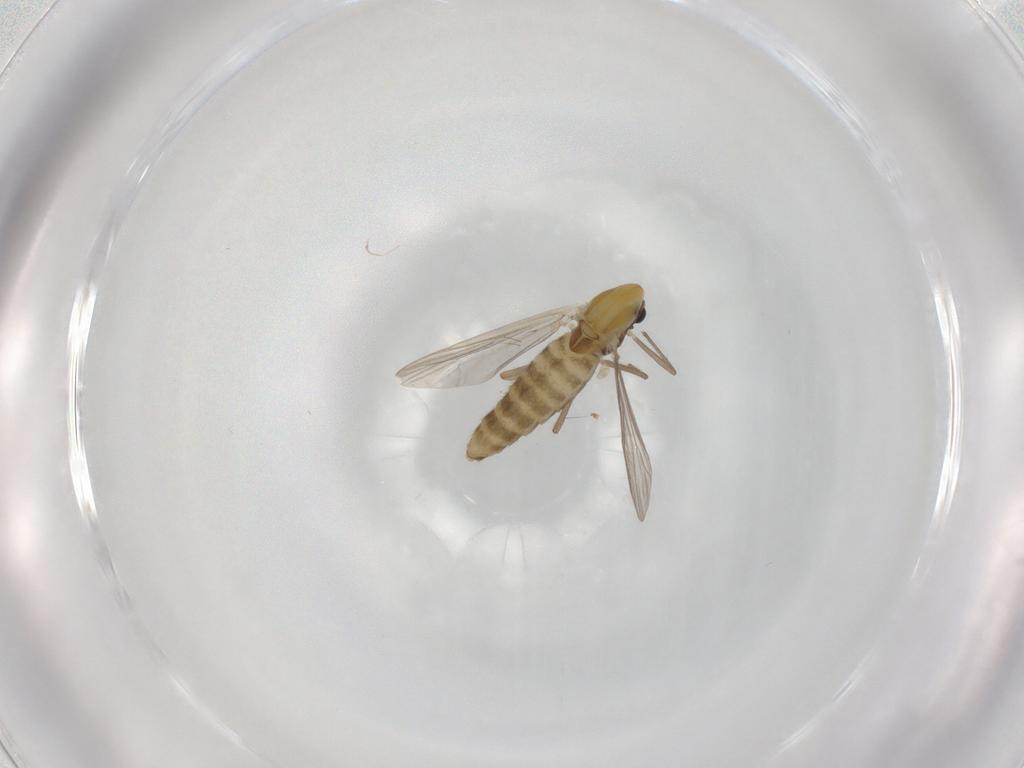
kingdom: Animalia
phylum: Arthropoda
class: Insecta
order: Diptera
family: Chironomidae
